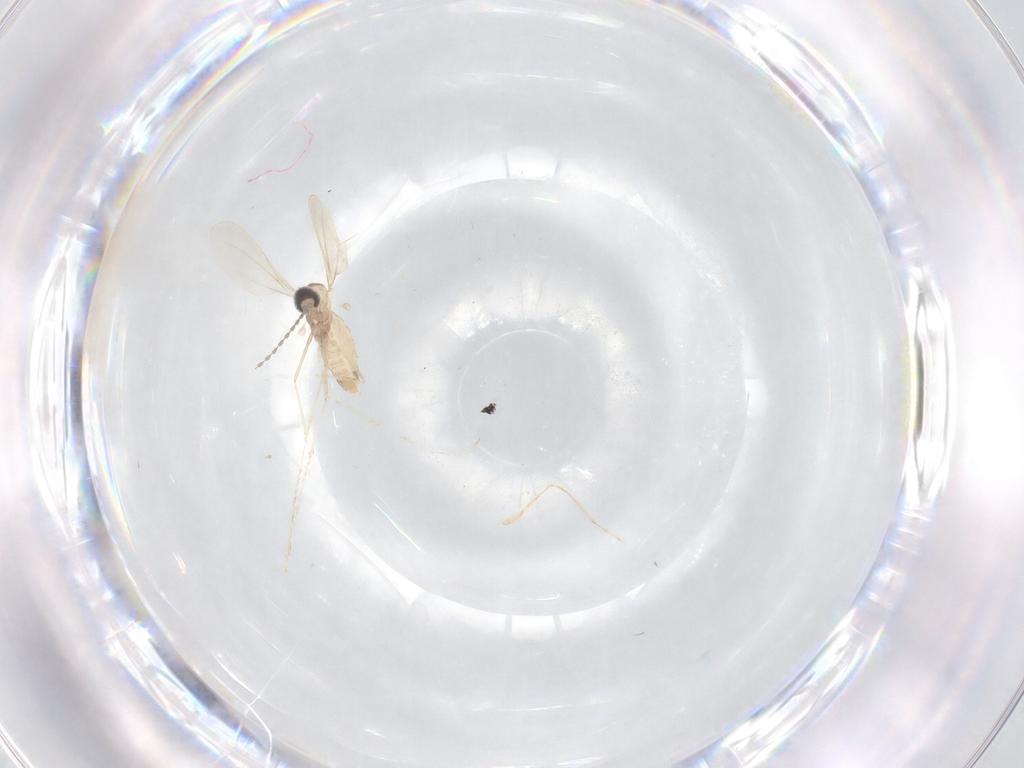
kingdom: Animalia
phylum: Arthropoda
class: Insecta
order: Diptera
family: Cecidomyiidae
